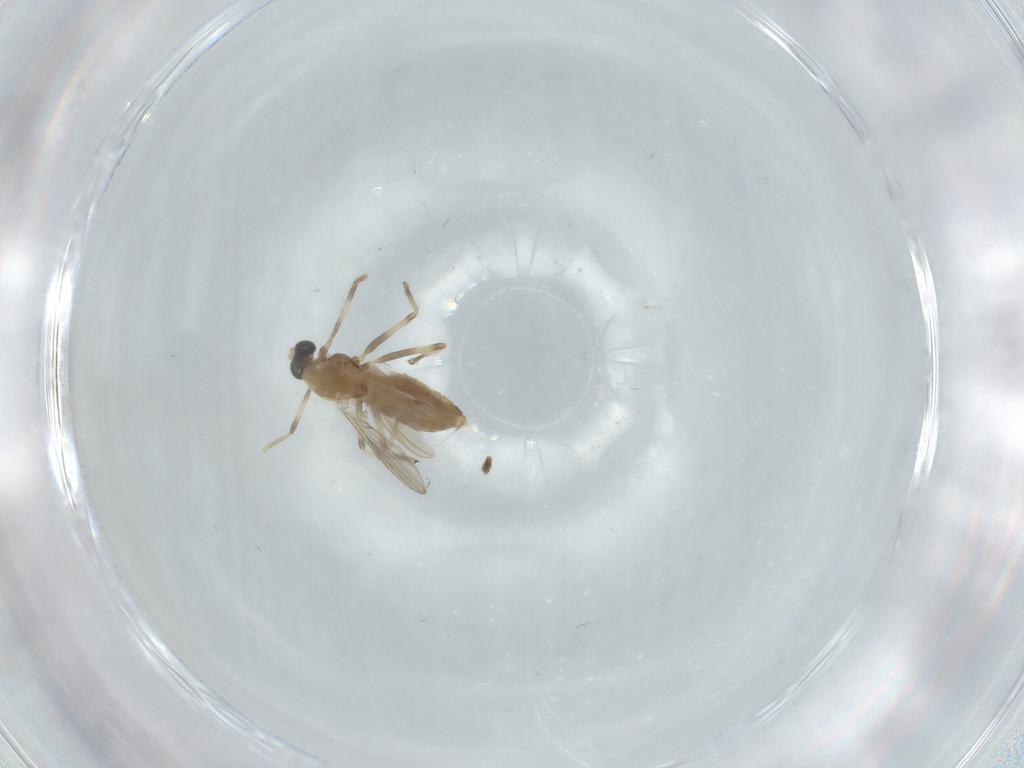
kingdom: Animalia
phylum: Arthropoda
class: Insecta
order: Diptera
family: Chironomidae
